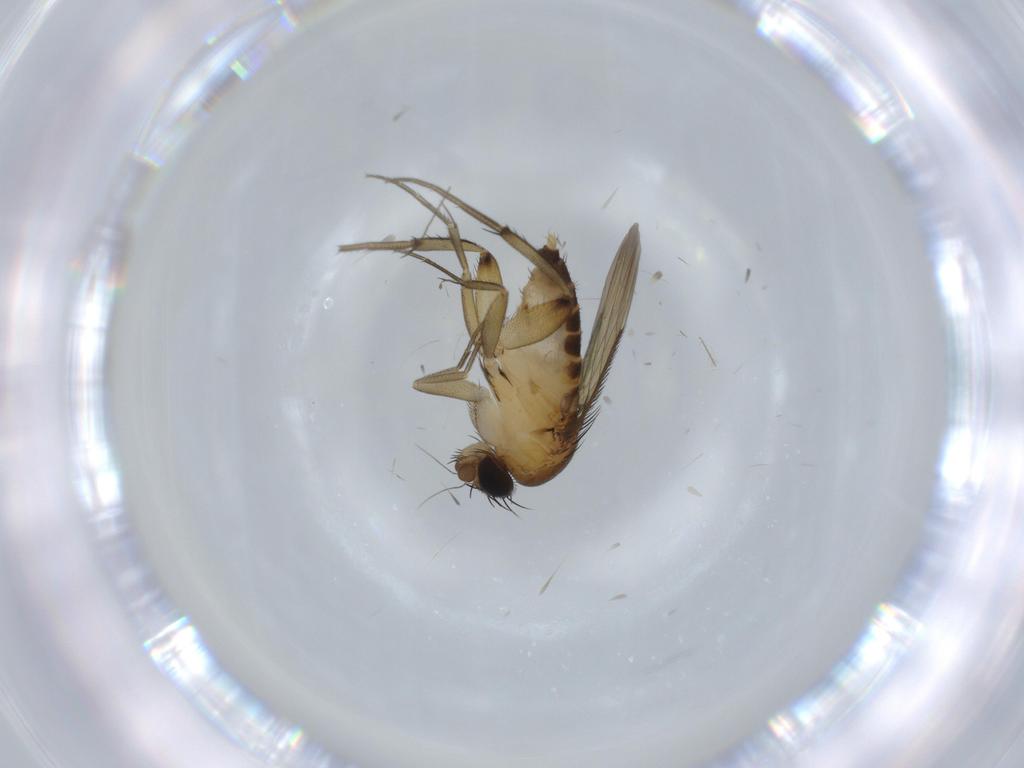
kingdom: Animalia
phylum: Arthropoda
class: Insecta
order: Diptera
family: Phoridae
